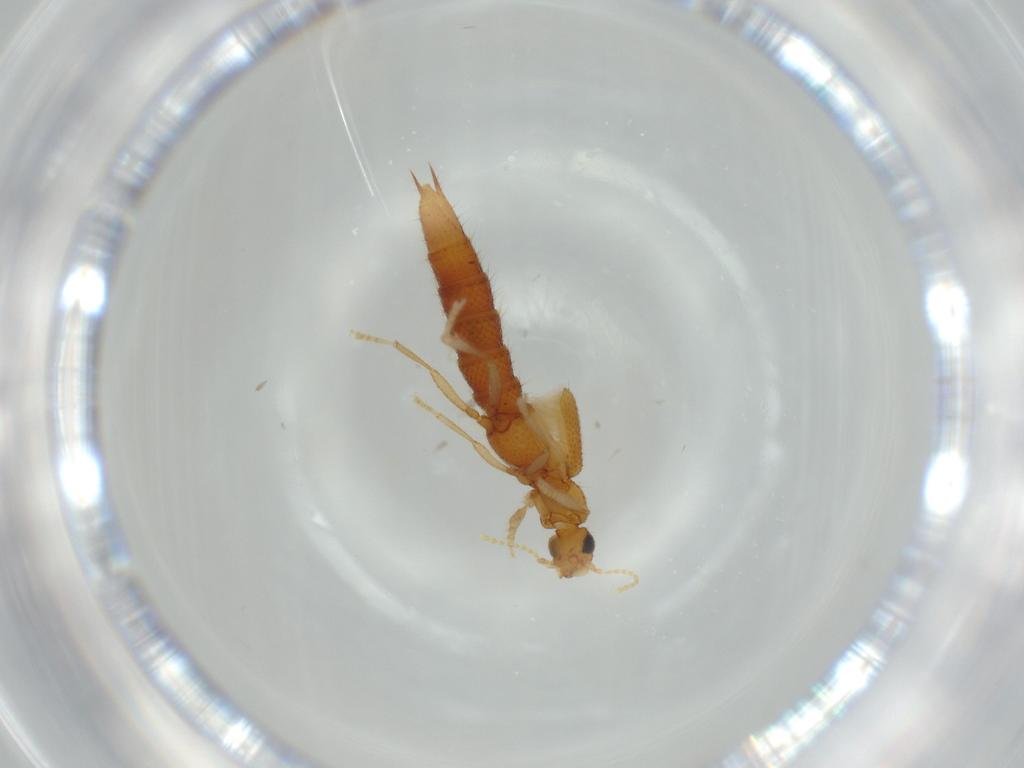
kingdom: Animalia
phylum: Arthropoda
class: Insecta
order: Coleoptera
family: Staphylinidae
